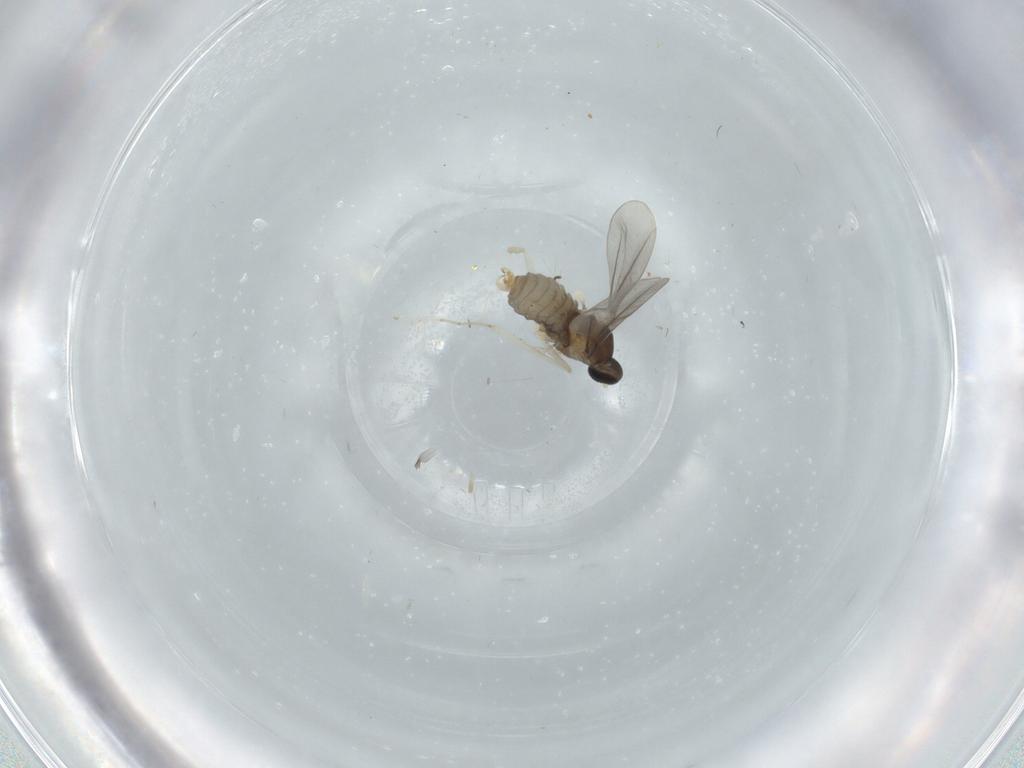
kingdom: Animalia
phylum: Arthropoda
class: Insecta
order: Diptera
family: Cecidomyiidae
